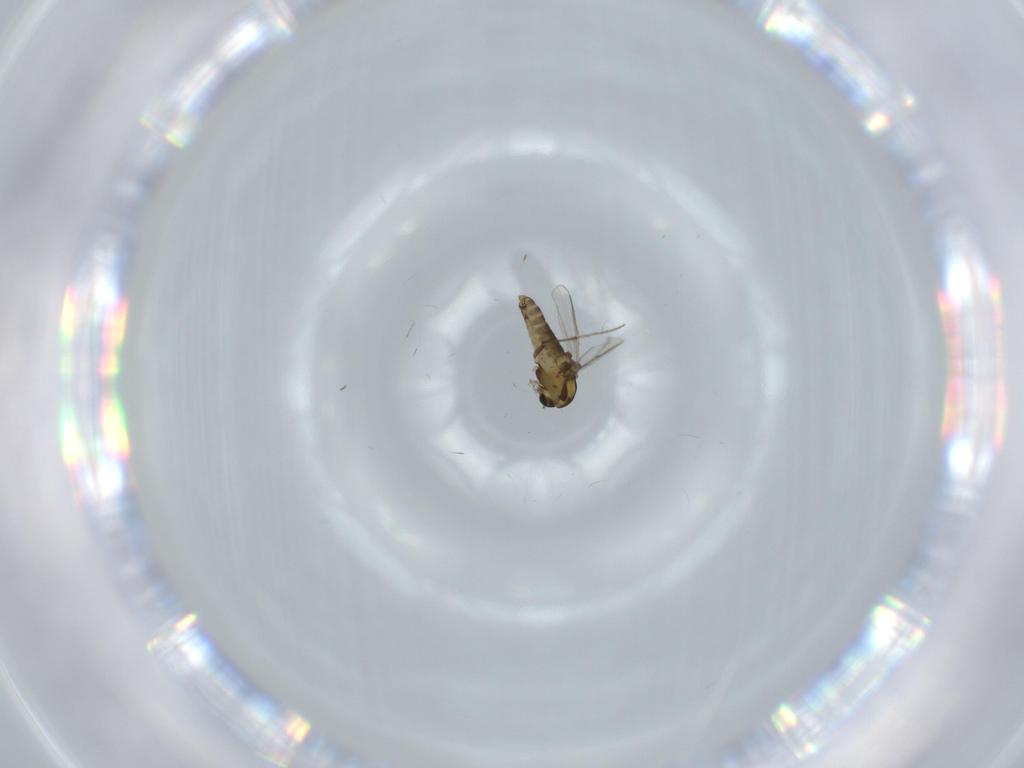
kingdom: Animalia
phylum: Arthropoda
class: Insecta
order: Diptera
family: Chironomidae
